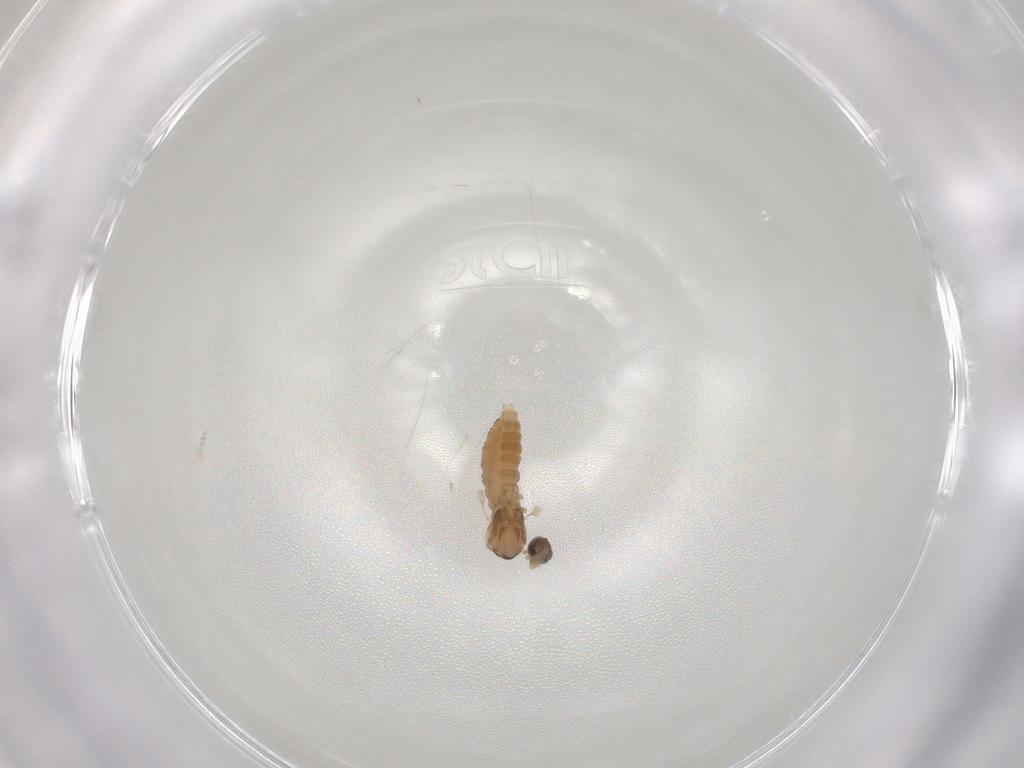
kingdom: Animalia
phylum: Arthropoda
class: Insecta
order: Diptera
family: Cecidomyiidae
